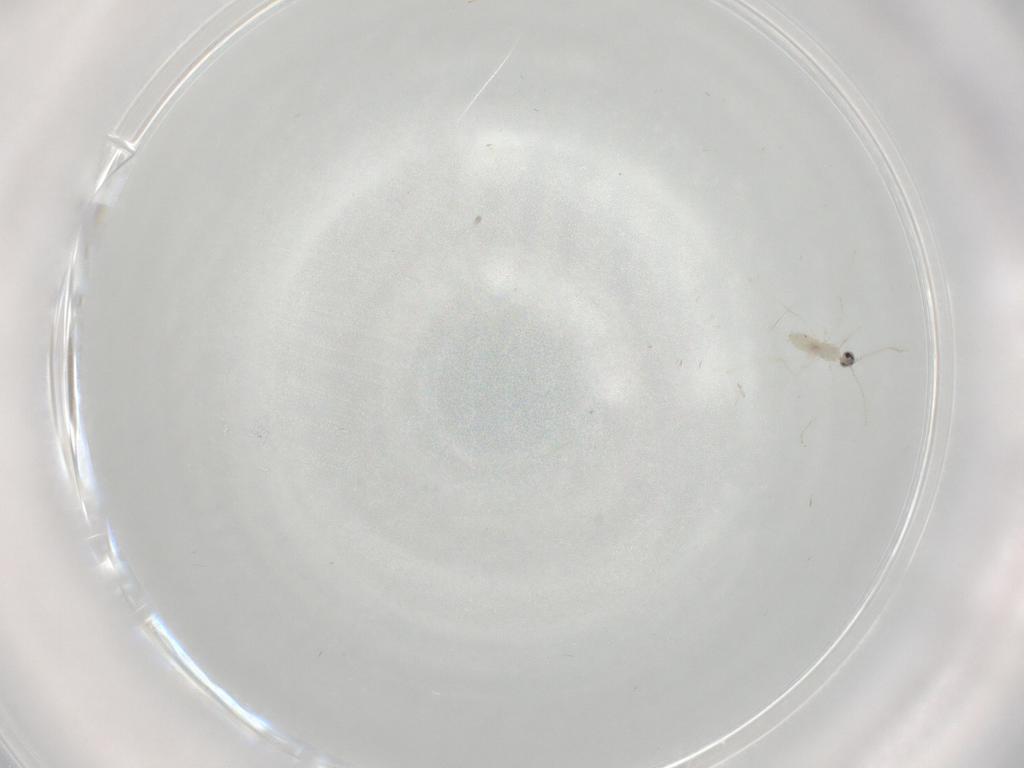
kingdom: Animalia
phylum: Arthropoda
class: Insecta
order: Diptera
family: Cecidomyiidae
